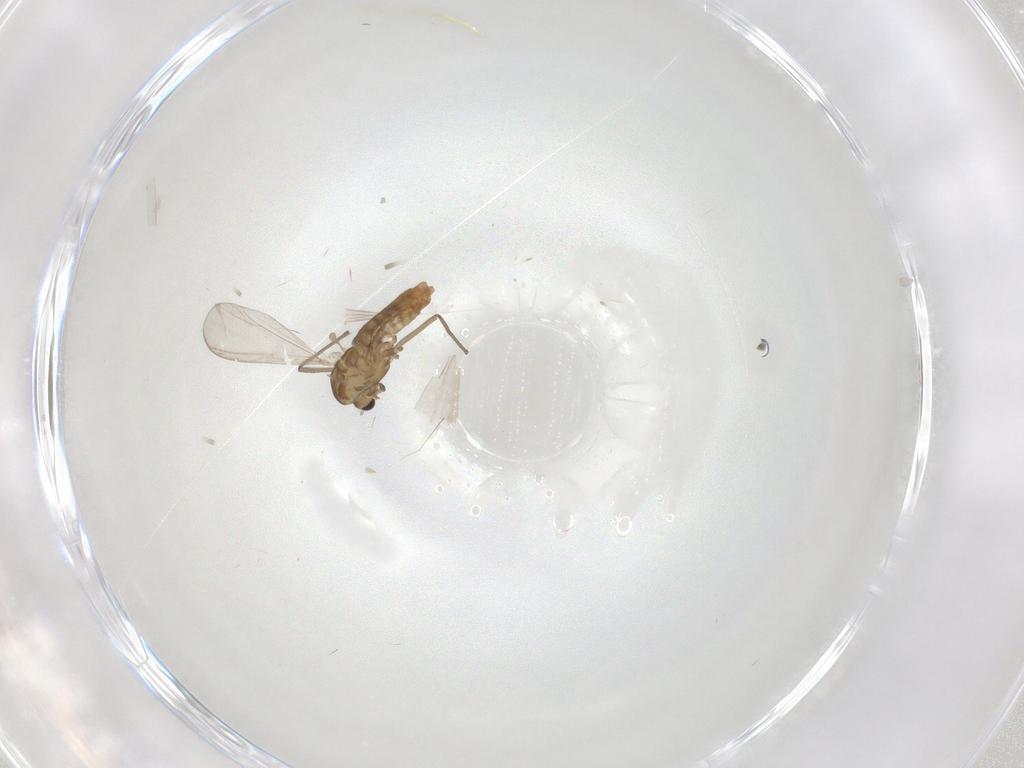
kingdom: Animalia
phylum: Arthropoda
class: Insecta
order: Diptera
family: Chironomidae
